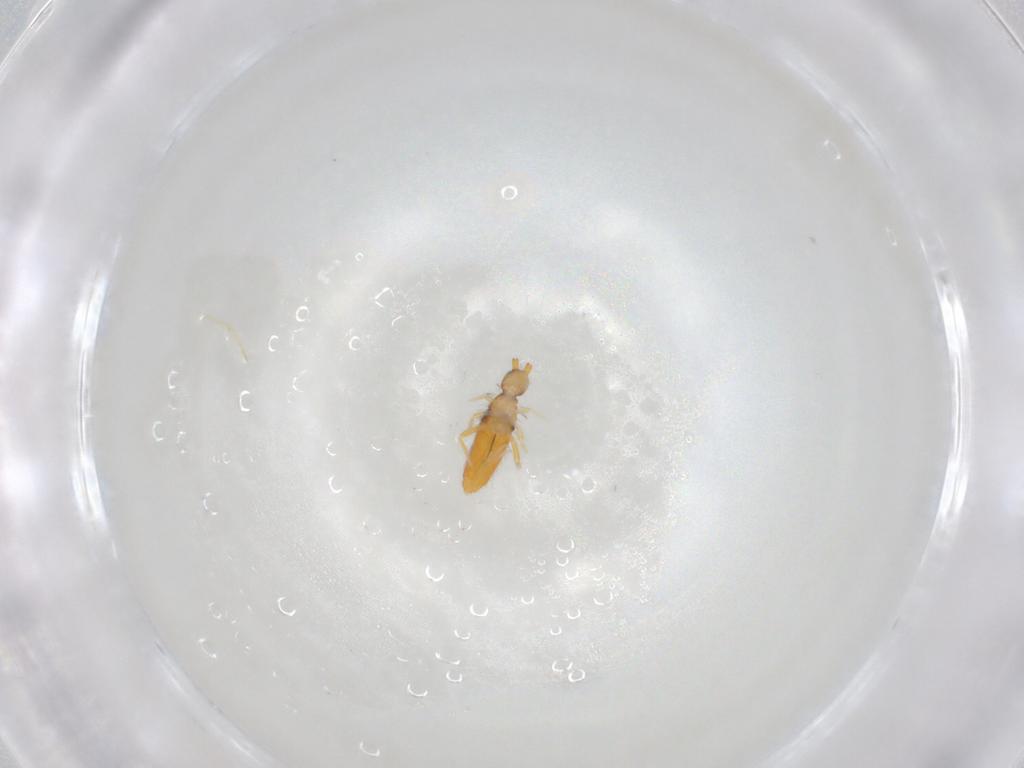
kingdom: Animalia
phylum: Arthropoda
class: Collembola
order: Entomobryomorpha
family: Entomobryidae
